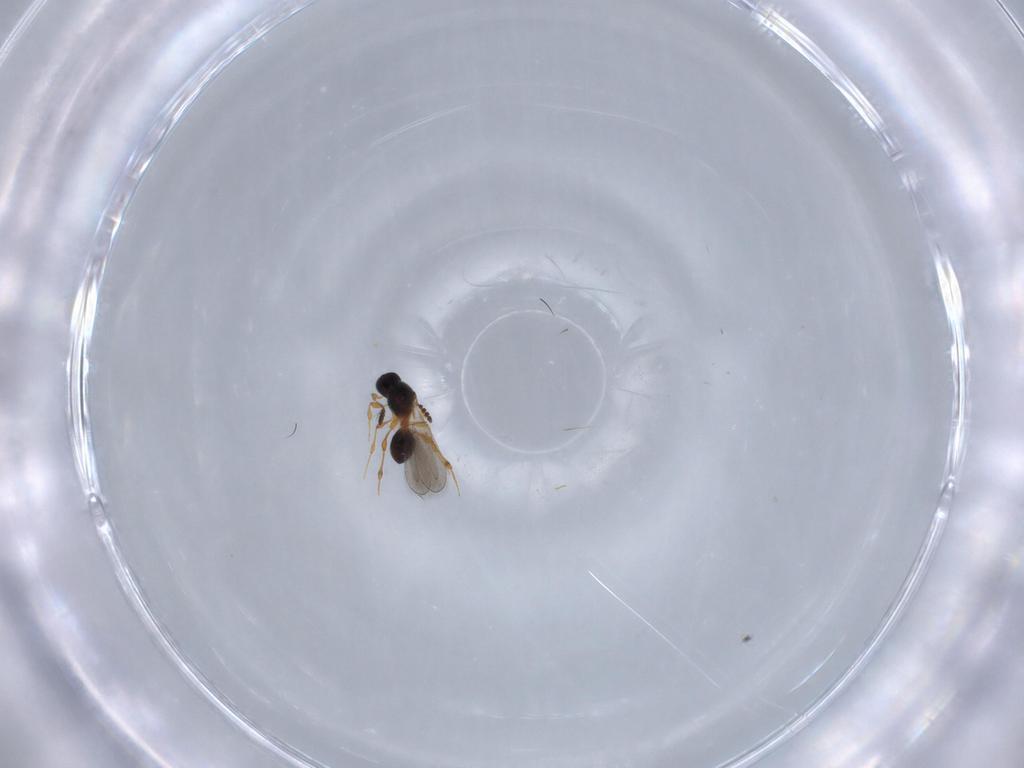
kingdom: Animalia
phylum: Arthropoda
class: Insecta
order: Hymenoptera
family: Platygastridae
